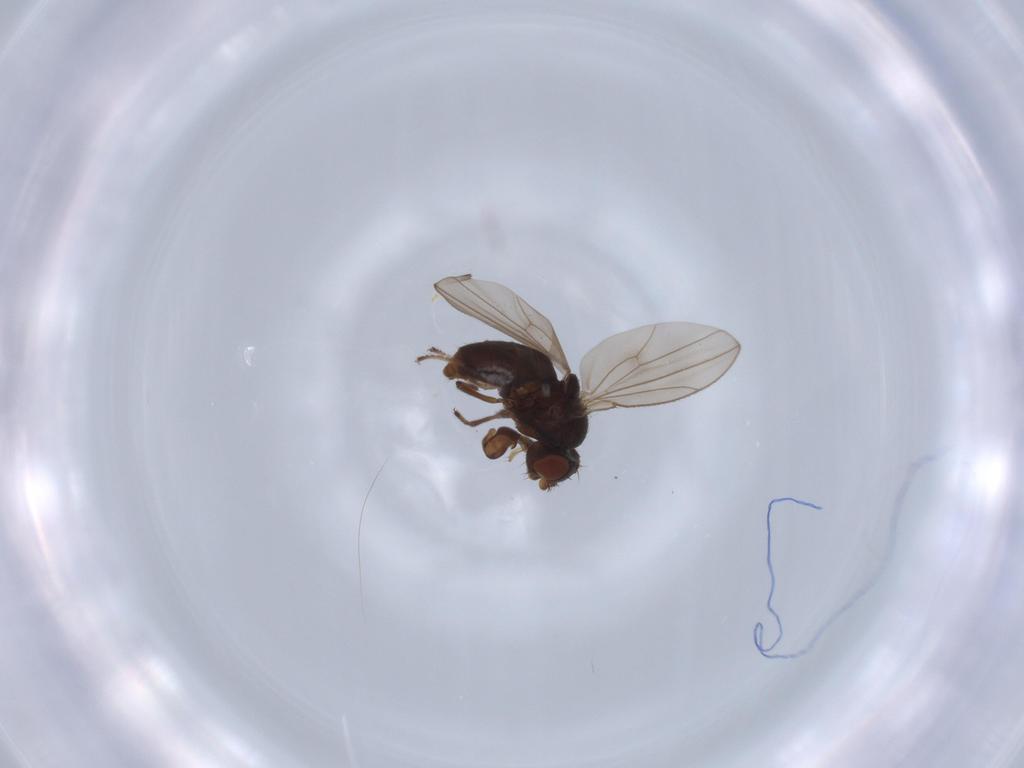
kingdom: Animalia
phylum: Arthropoda
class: Insecta
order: Diptera
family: Ephydridae
